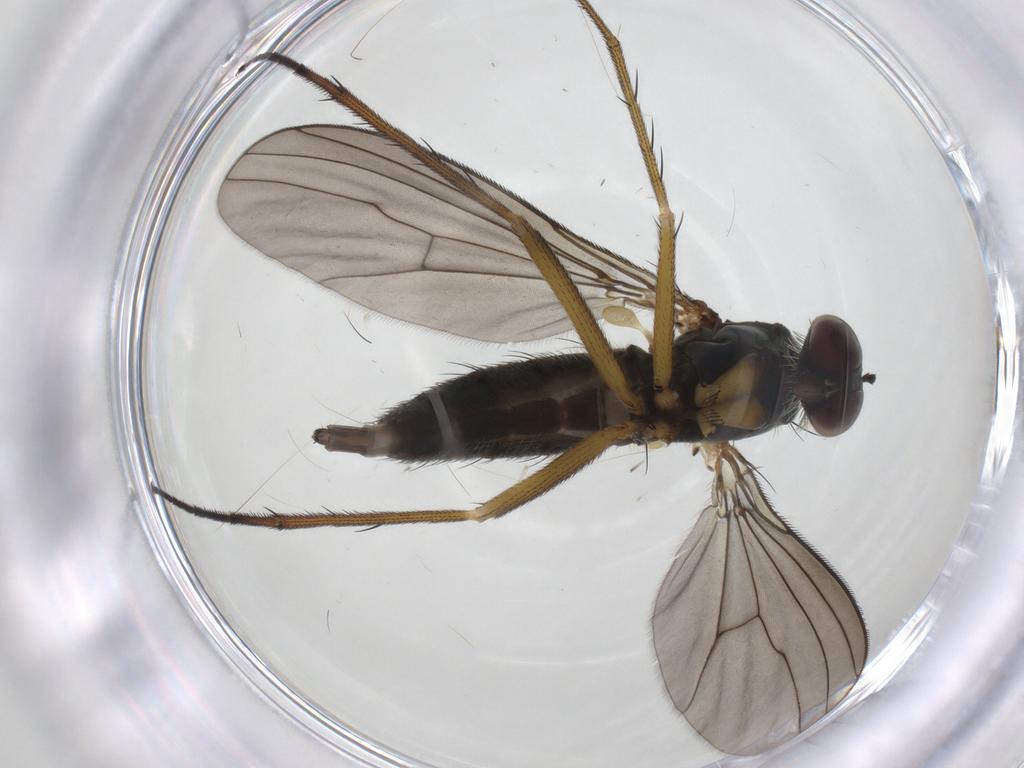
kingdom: Animalia
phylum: Arthropoda
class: Insecta
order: Diptera
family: Dolichopodidae
